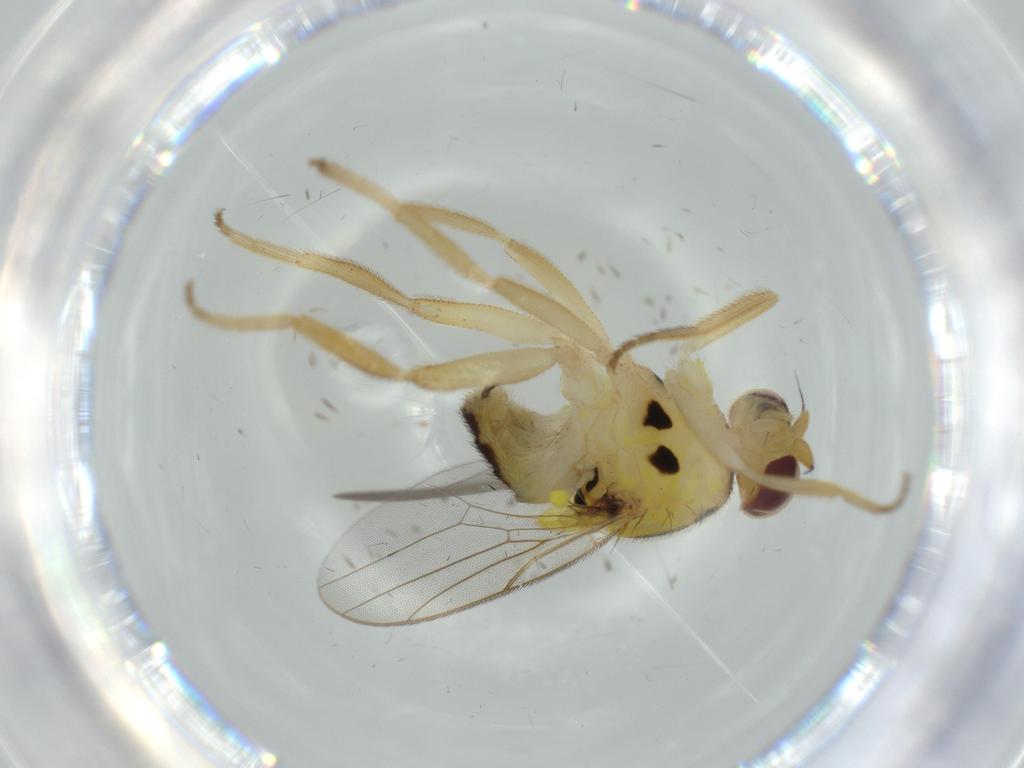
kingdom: Animalia
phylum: Arthropoda
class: Insecta
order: Diptera
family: Chloropidae
